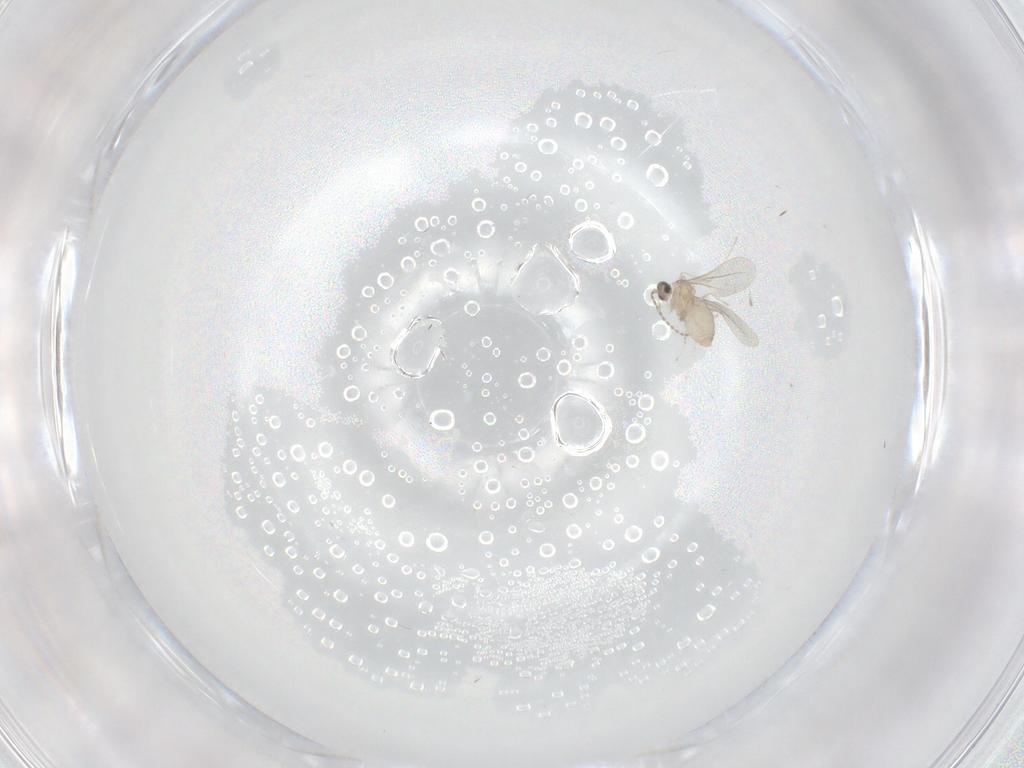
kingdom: Animalia
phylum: Arthropoda
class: Insecta
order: Diptera
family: Cecidomyiidae
